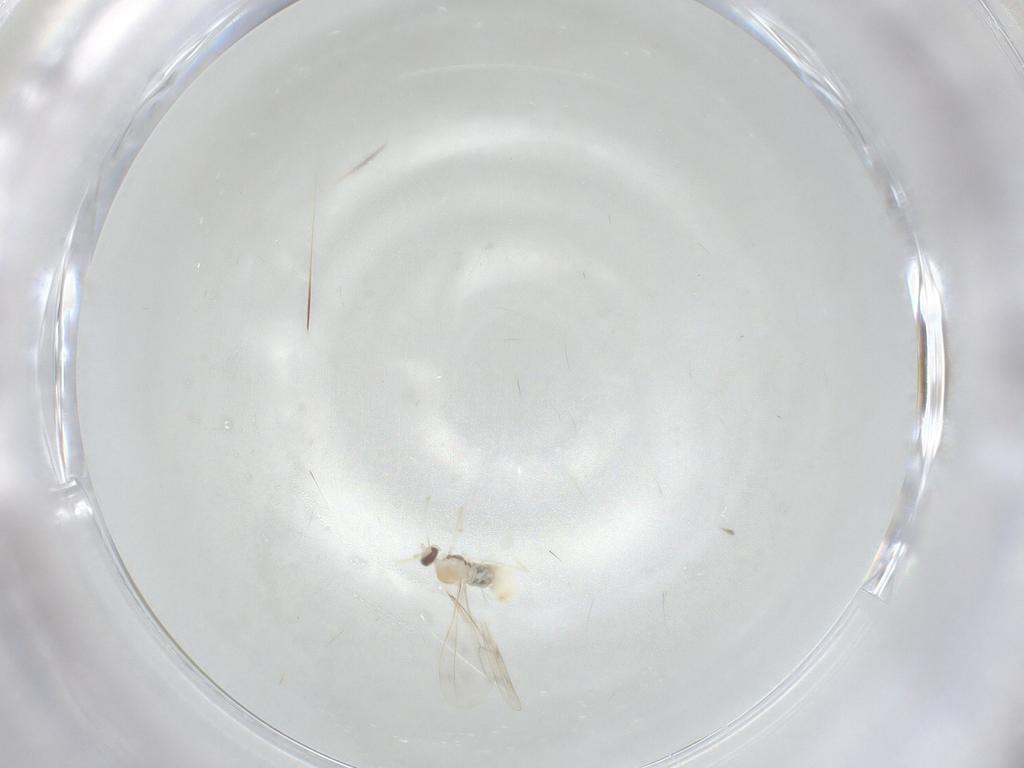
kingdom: Animalia
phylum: Arthropoda
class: Insecta
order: Diptera
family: Cecidomyiidae
